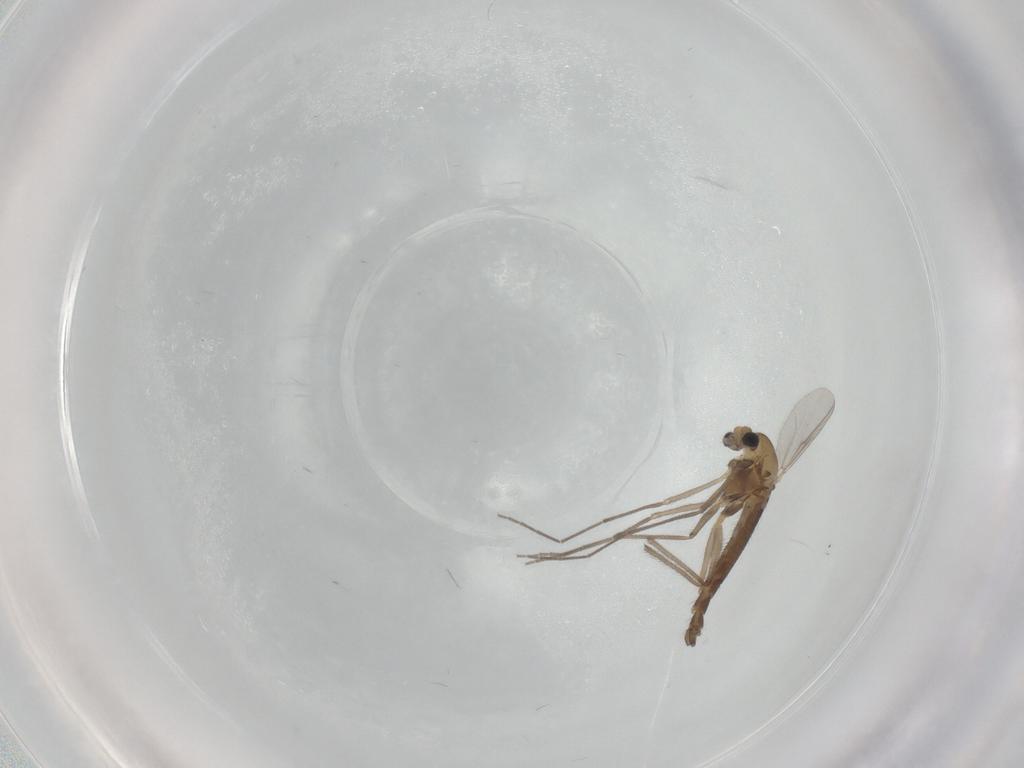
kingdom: Animalia
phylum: Arthropoda
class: Insecta
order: Diptera
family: Chironomidae
